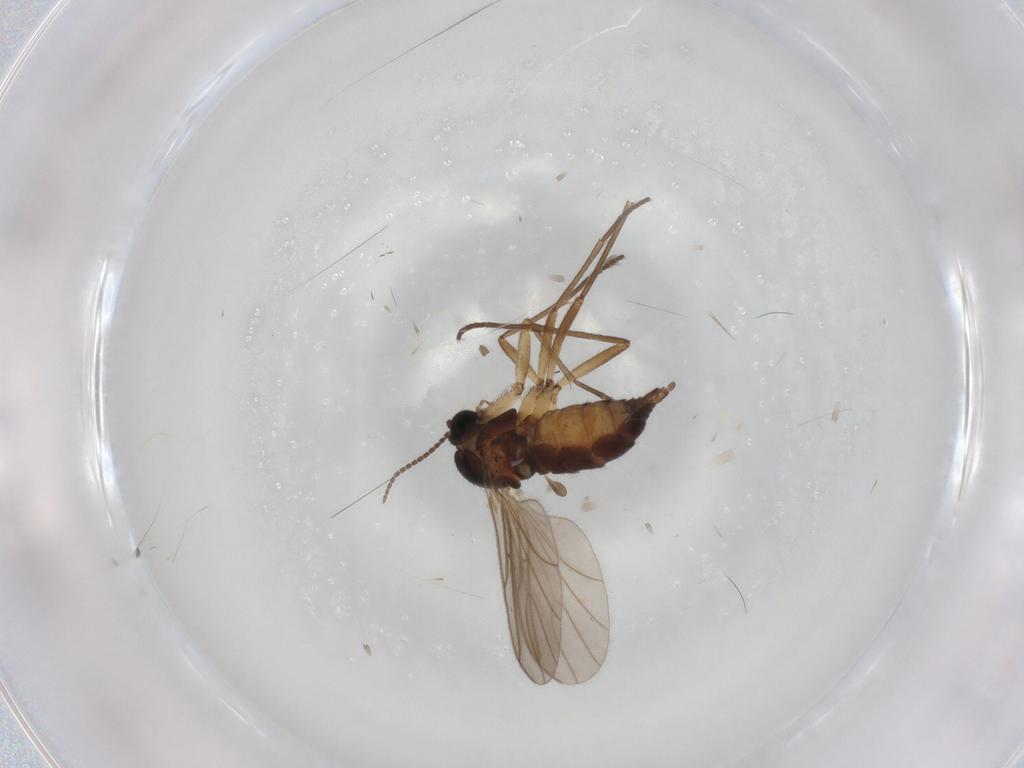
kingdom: Animalia
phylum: Arthropoda
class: Insecta
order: Diptera
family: Sciaridae
